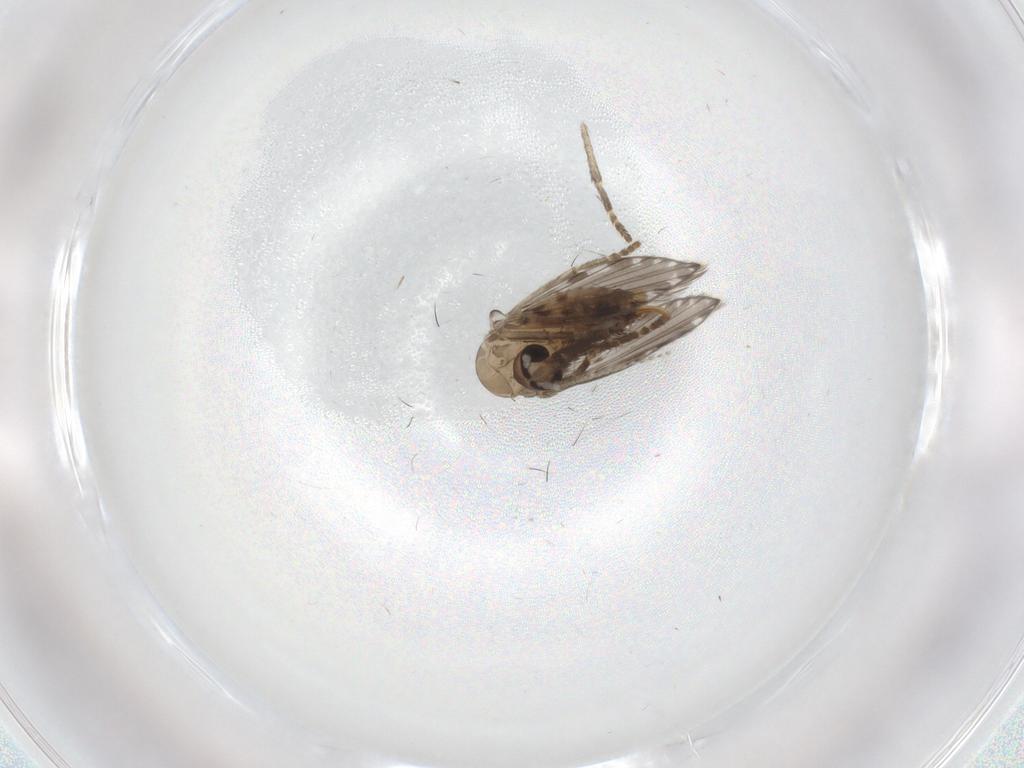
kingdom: Animalia
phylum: Arthropoda
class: Insecta
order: Diptera
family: Psychodidae
